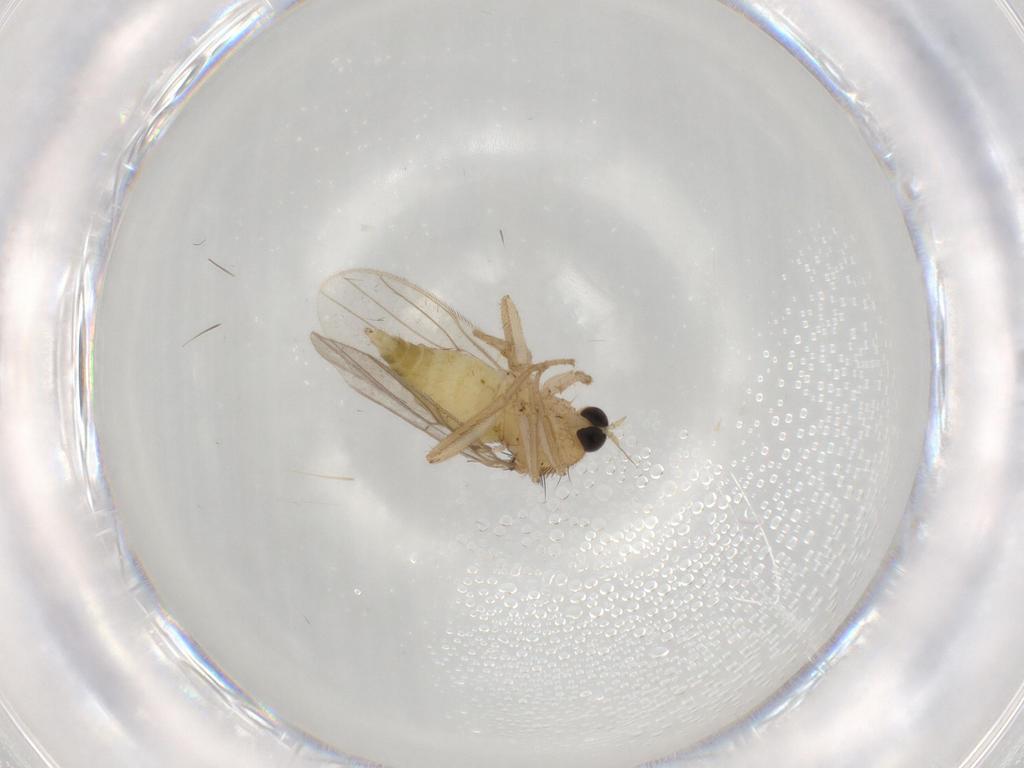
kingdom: Animalia
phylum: Arthropoda
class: Insecta
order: Diptera
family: Hybotidae
